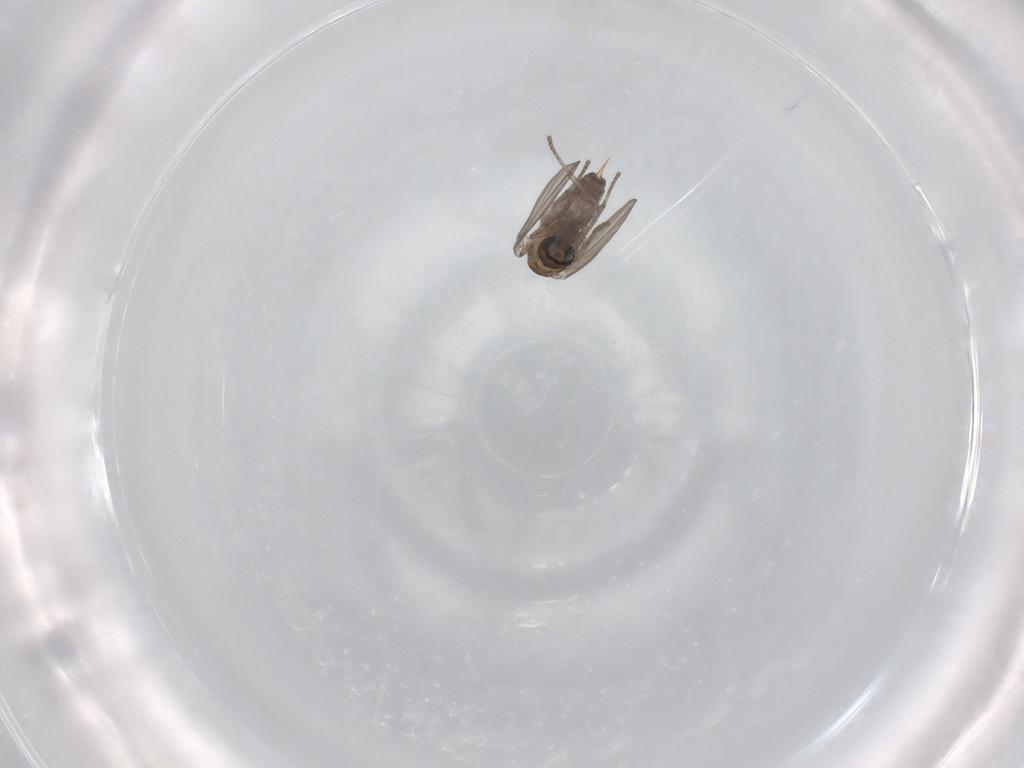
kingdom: Animalia
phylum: Arthropoda
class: Insecta
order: Diptera
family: Psychodidae
